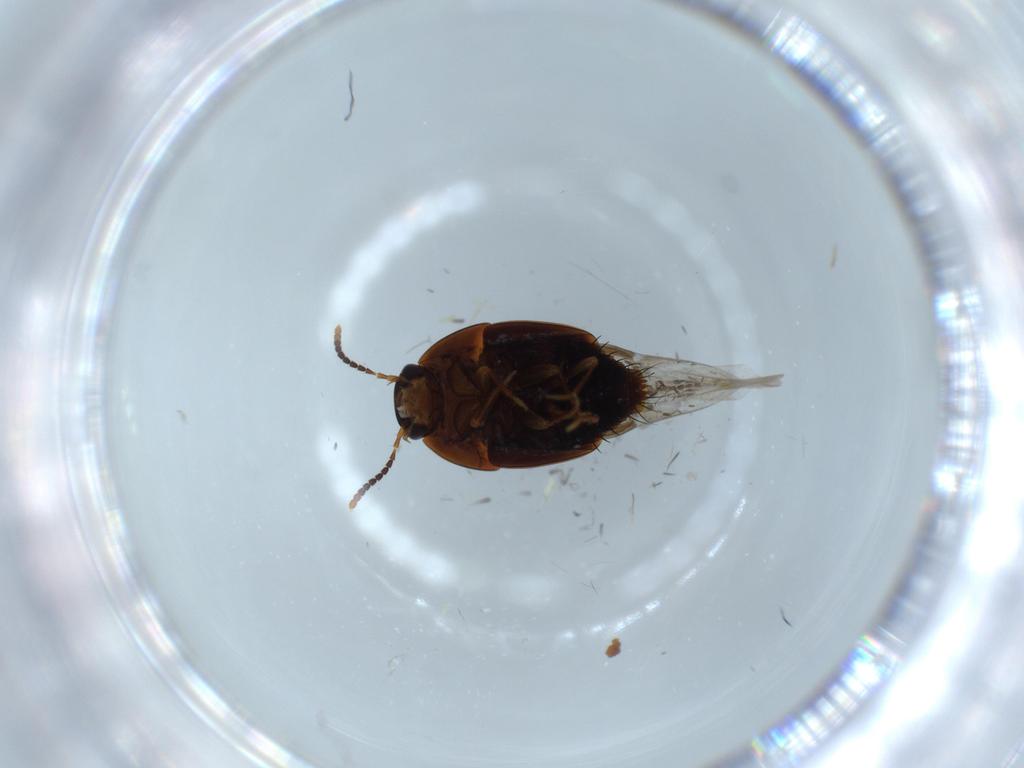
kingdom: Animalia
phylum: Arthropoda
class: Insecta
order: Coleoptera
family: Staphylinidae
